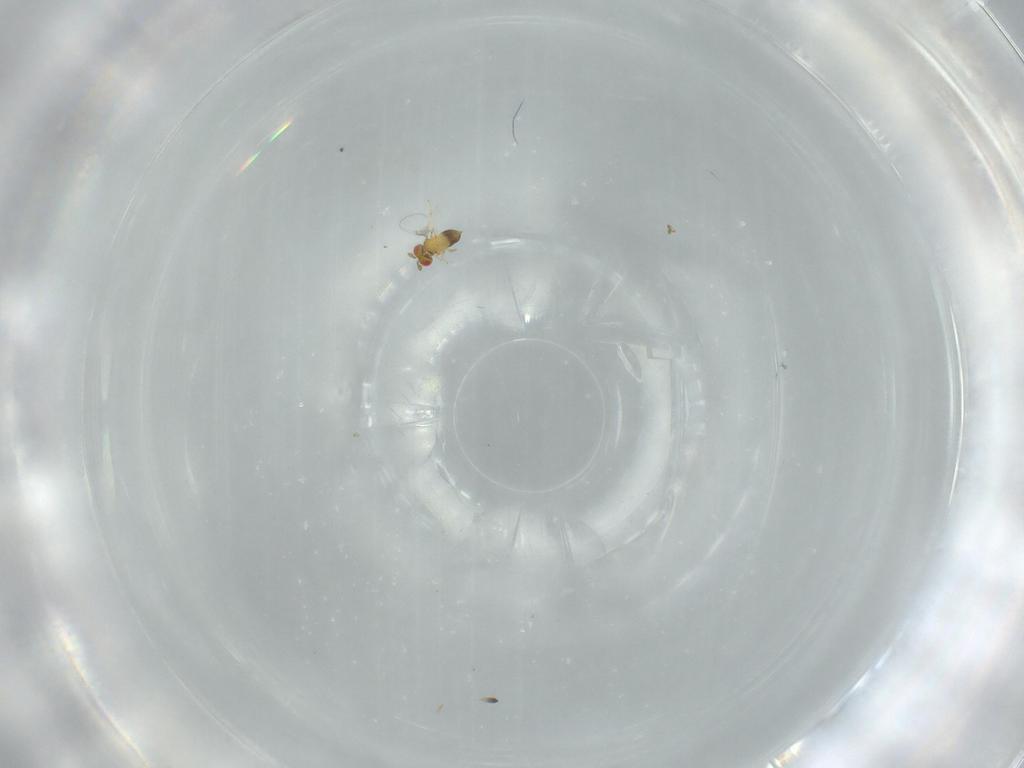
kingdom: Animalia
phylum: Arthropoda
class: Insecta
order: Hymenoptera
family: Trichogrammatidae
